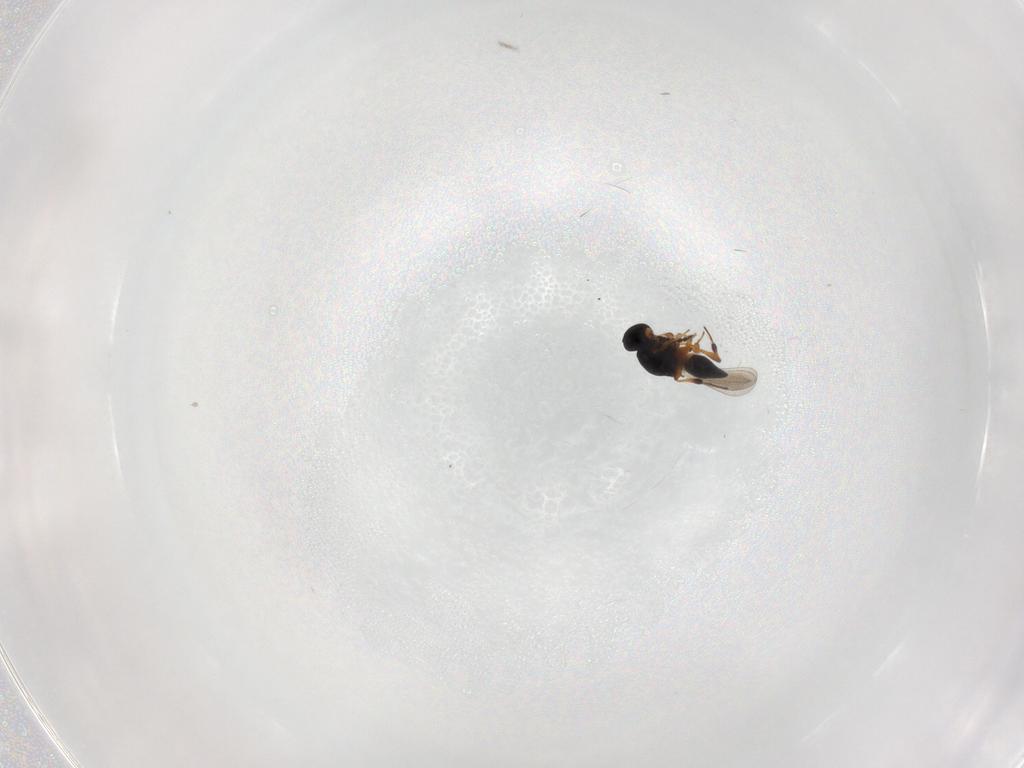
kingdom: Animalia
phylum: Arthropoda
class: Insecta
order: Hymenoptera
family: Platygastridae
